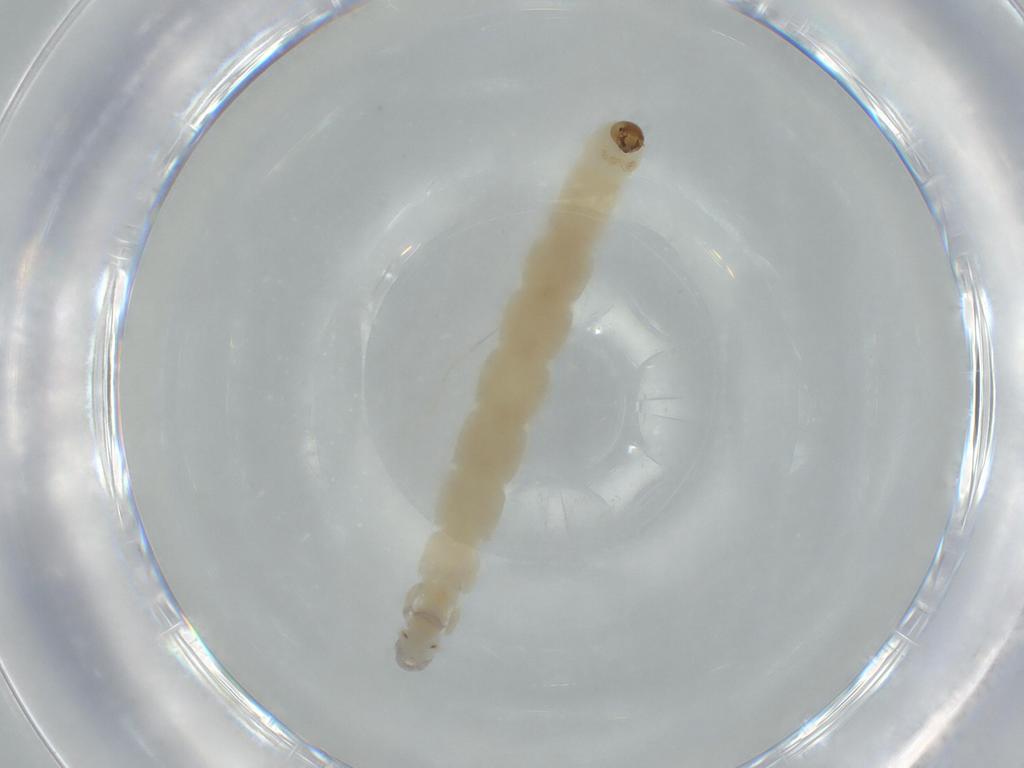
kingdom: Animalia
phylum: Arthropoda
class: Insecta
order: Diptera
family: Chironomidae
